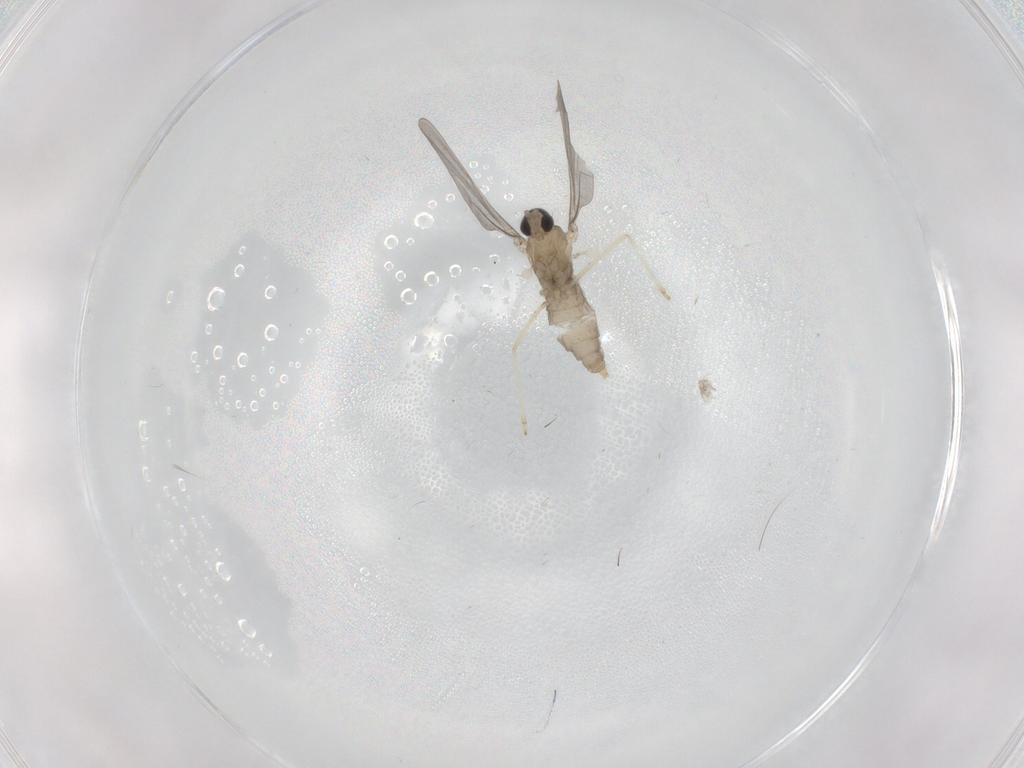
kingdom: Animalia
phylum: Arthropoda
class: Insecta
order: Diptera
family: Cecidomyiidae
